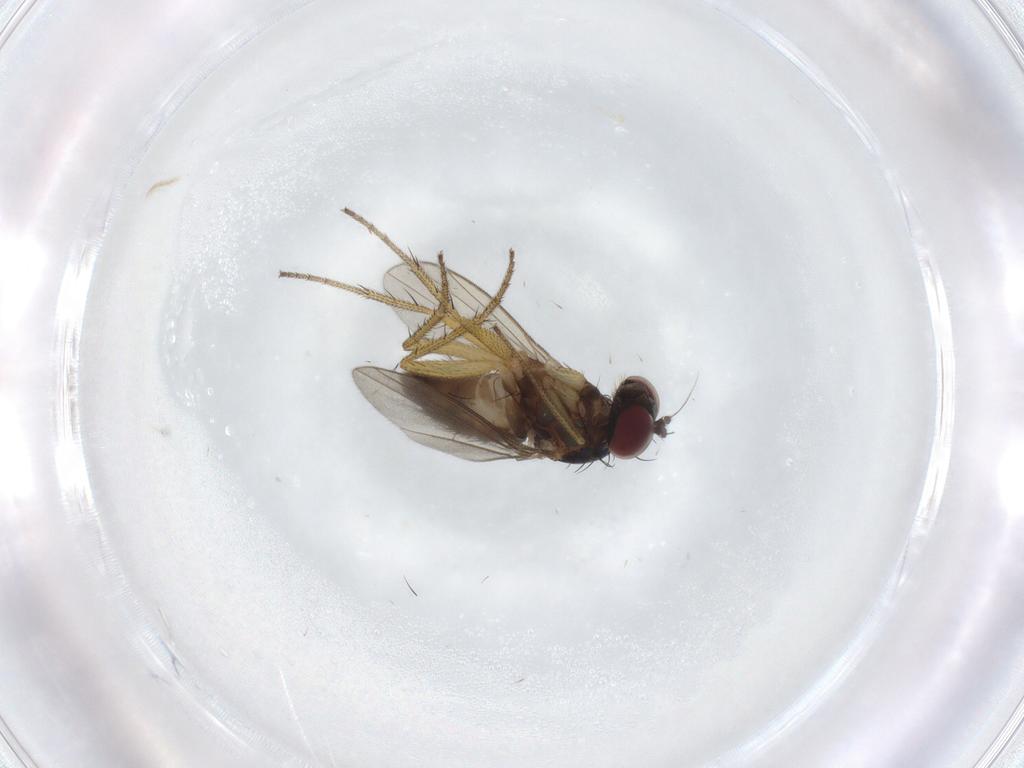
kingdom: Animalia
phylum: Arthropoda
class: Insecta
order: Diptera
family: Dolichopodidae
